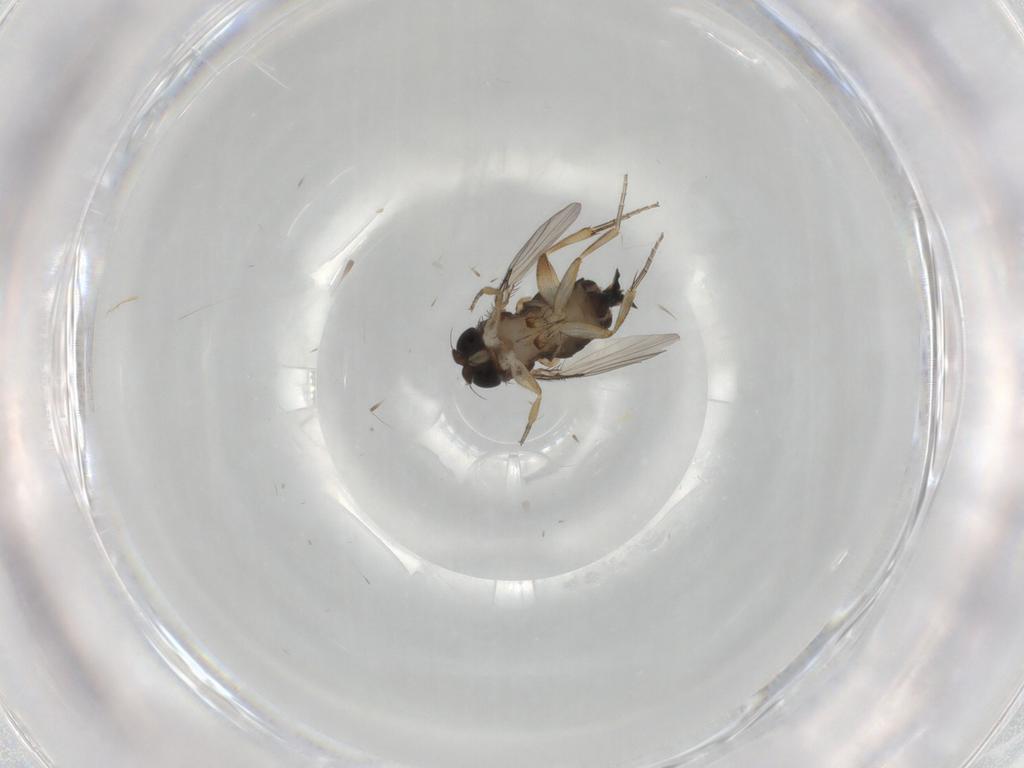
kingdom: Animalia
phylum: Arthropoda
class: Insecta
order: Diptera
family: Phoridae
